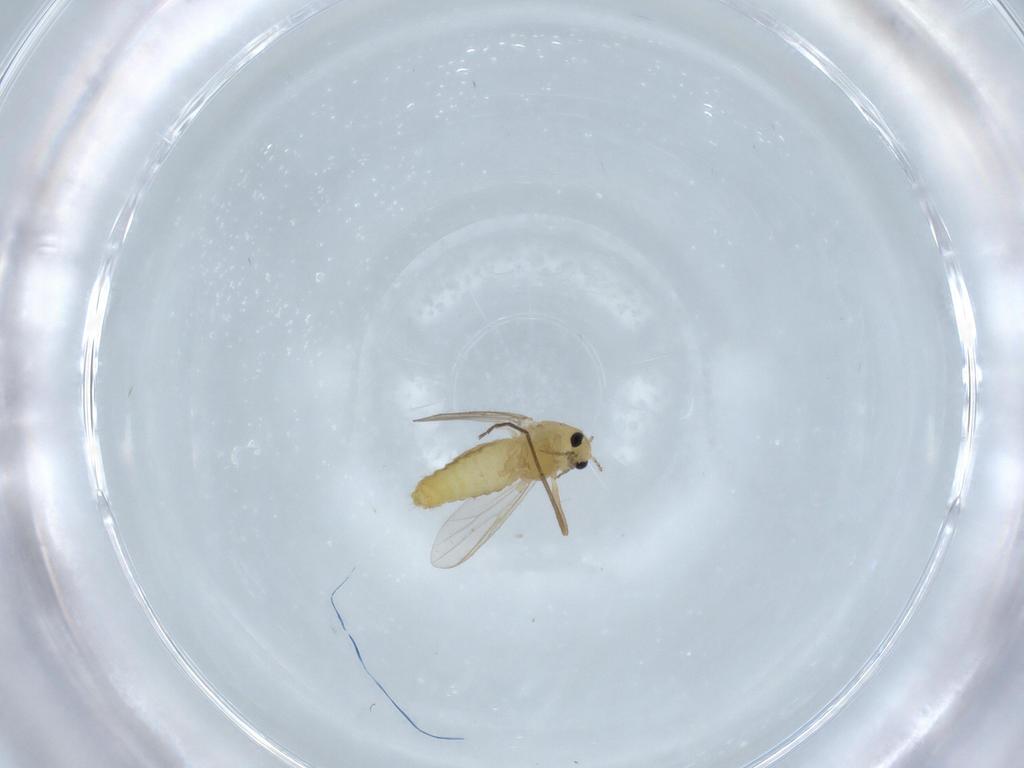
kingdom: Animalia
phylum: Arthropoda
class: Insecta
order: Diptera
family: Chironomidae
